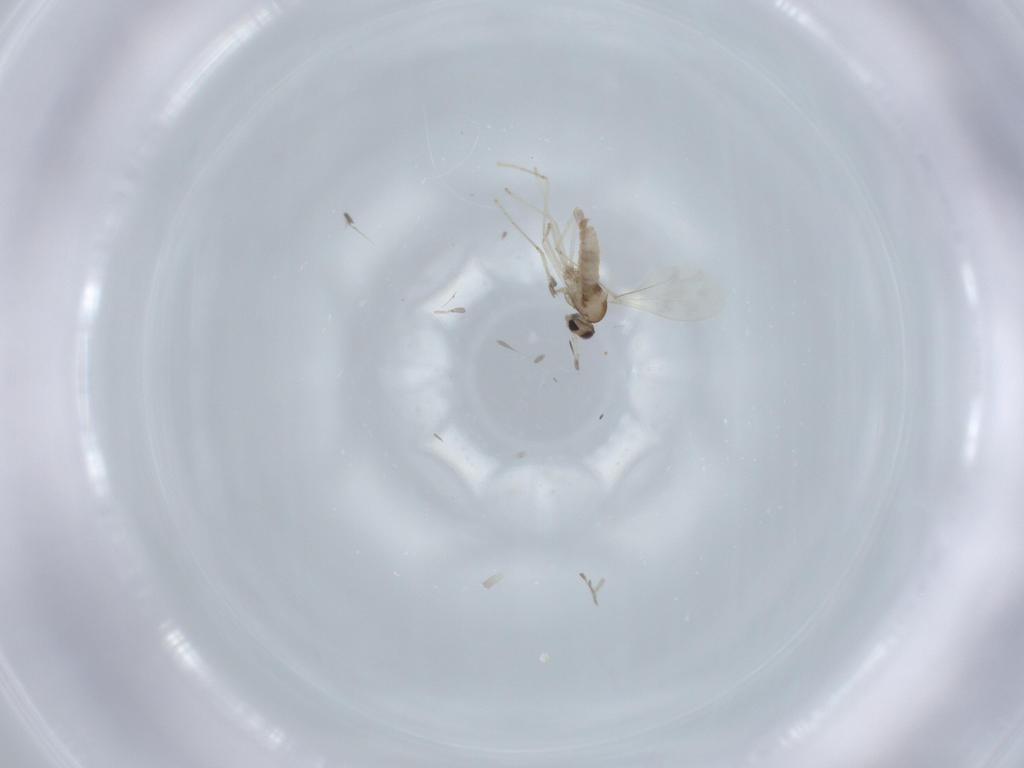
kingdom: Animalia
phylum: Arthropoda
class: Insecta
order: Diptera
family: Cecidomyiidae
